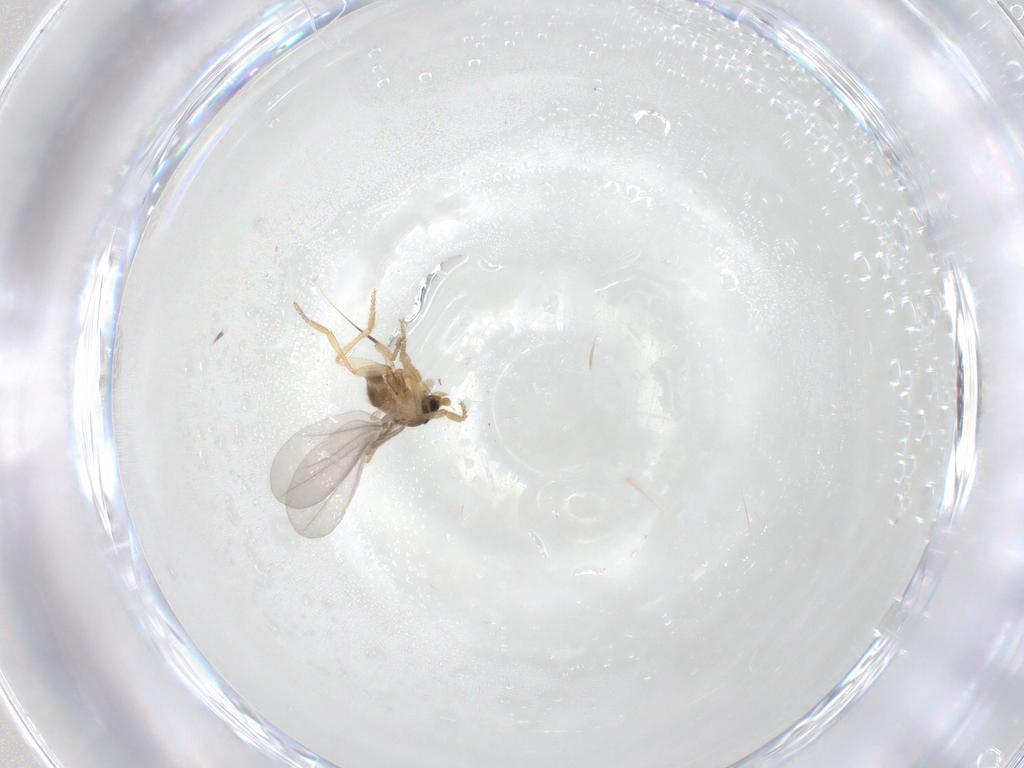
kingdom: Animalia
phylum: Arthropoda
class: Insecta
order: Diptera
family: Phoridae
